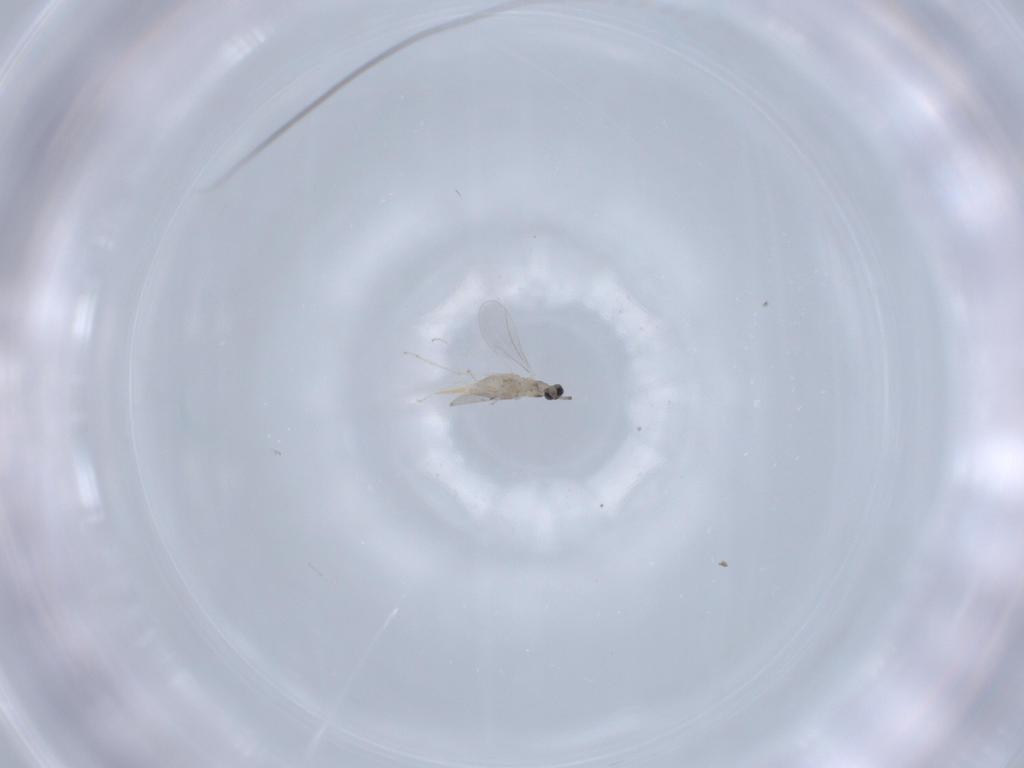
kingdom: Animalia
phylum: Arthropoda
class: Insecta
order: Diptera
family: Cecidomyiidae
